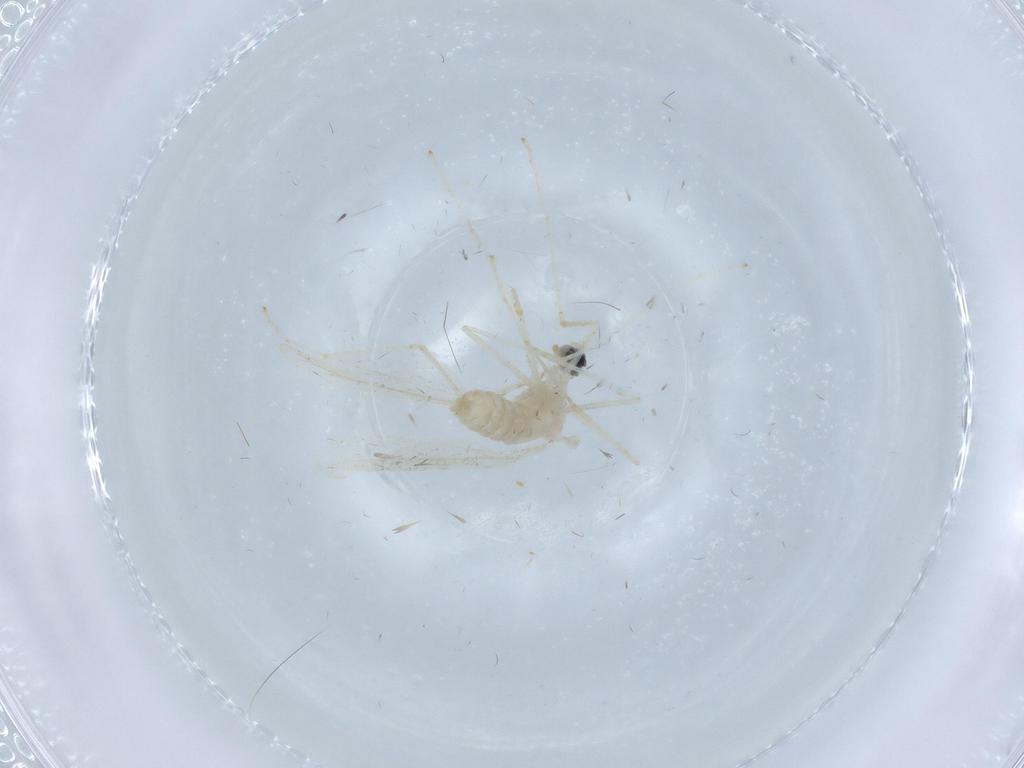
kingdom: Animalia
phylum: Arthropoda
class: Insecta
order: Diptera
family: Cecidomyiidae
